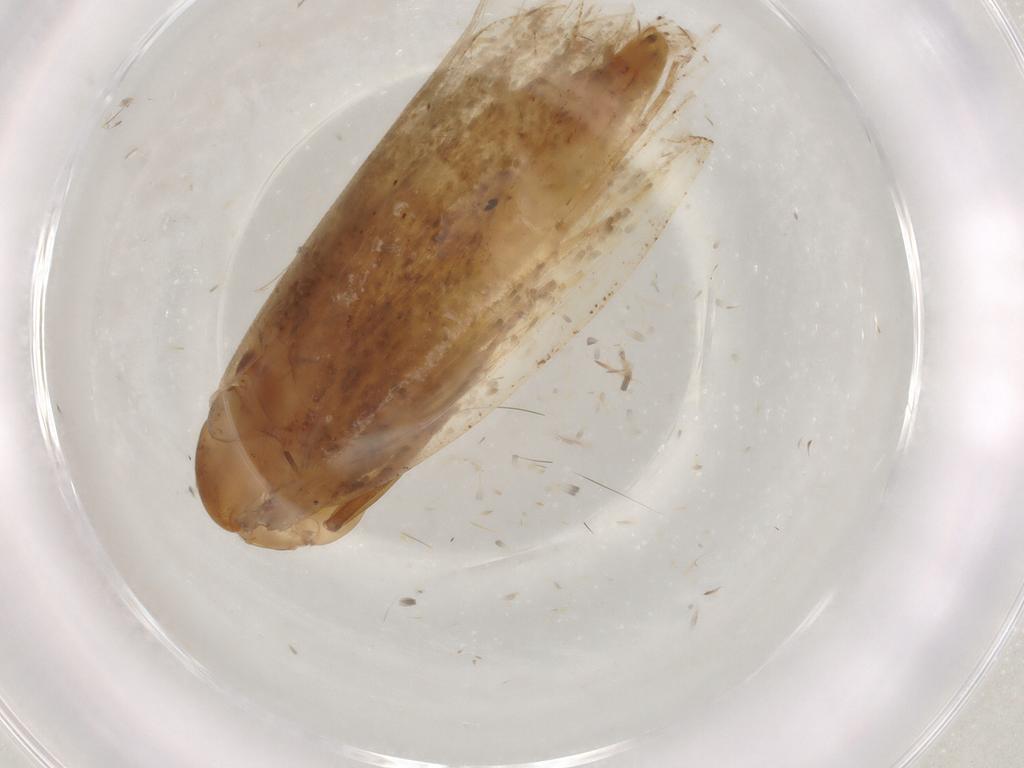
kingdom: Animalia
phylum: Arthropoda
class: Insecta
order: Lepidoptera
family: Tineidae
